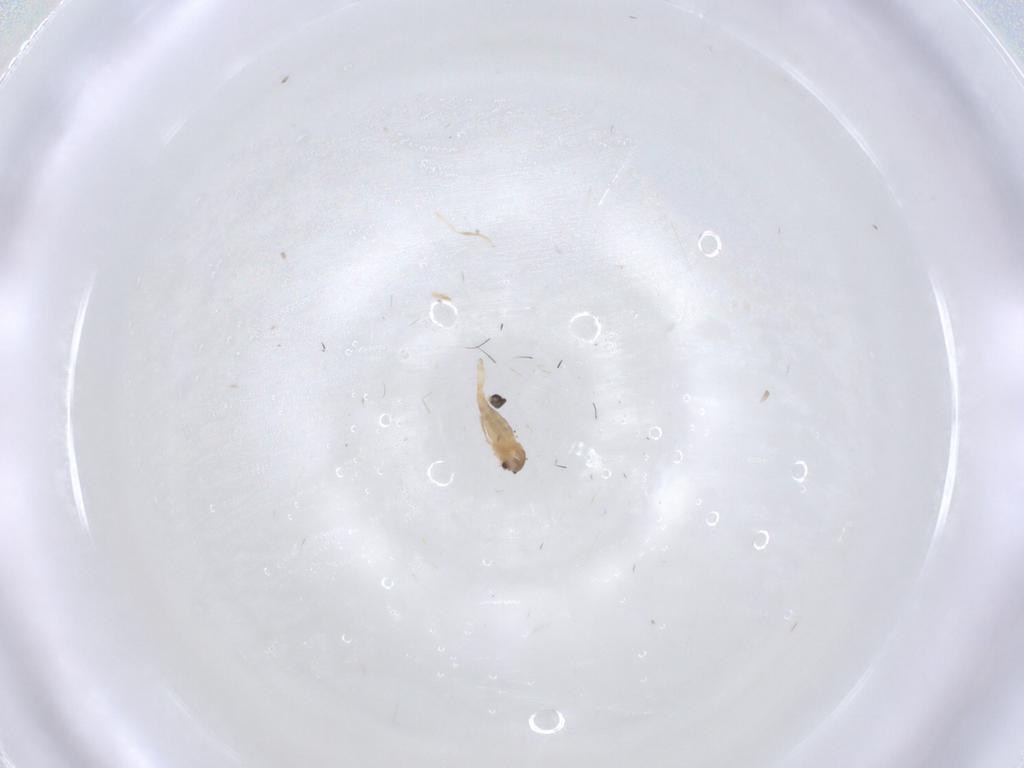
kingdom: Animalia
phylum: Arthropoda
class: Insecta
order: Diptera
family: Cecidomyiidae
